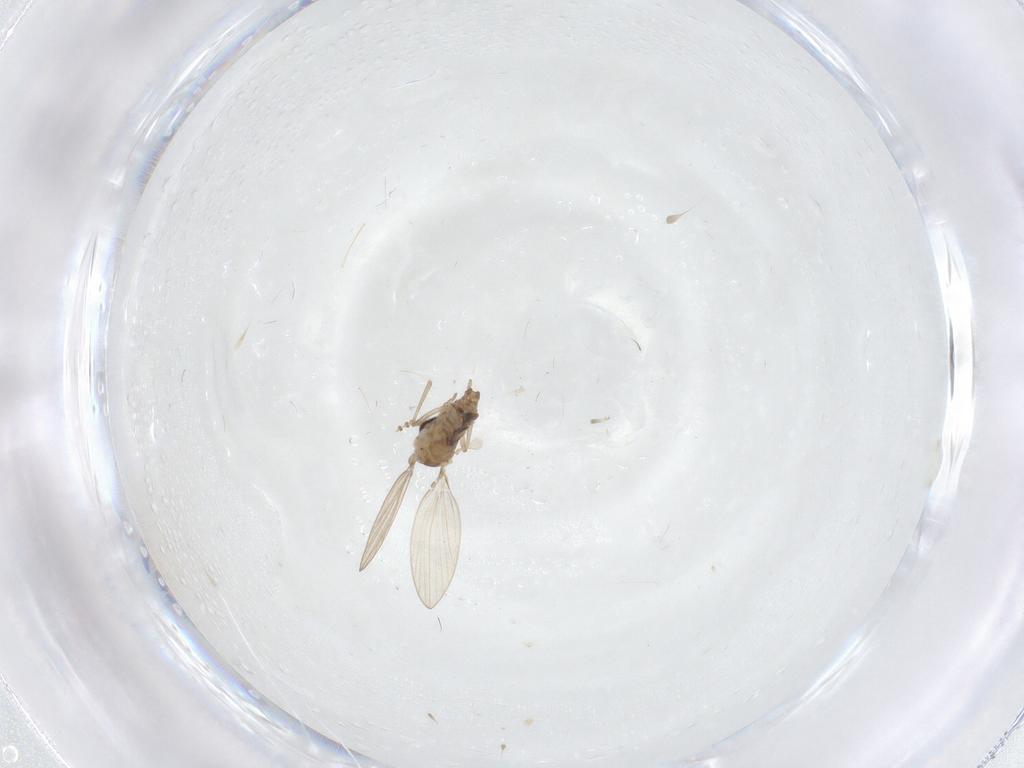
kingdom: Animalia
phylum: Arthropoda
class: Insecta
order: Diptera
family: Psychodidae
